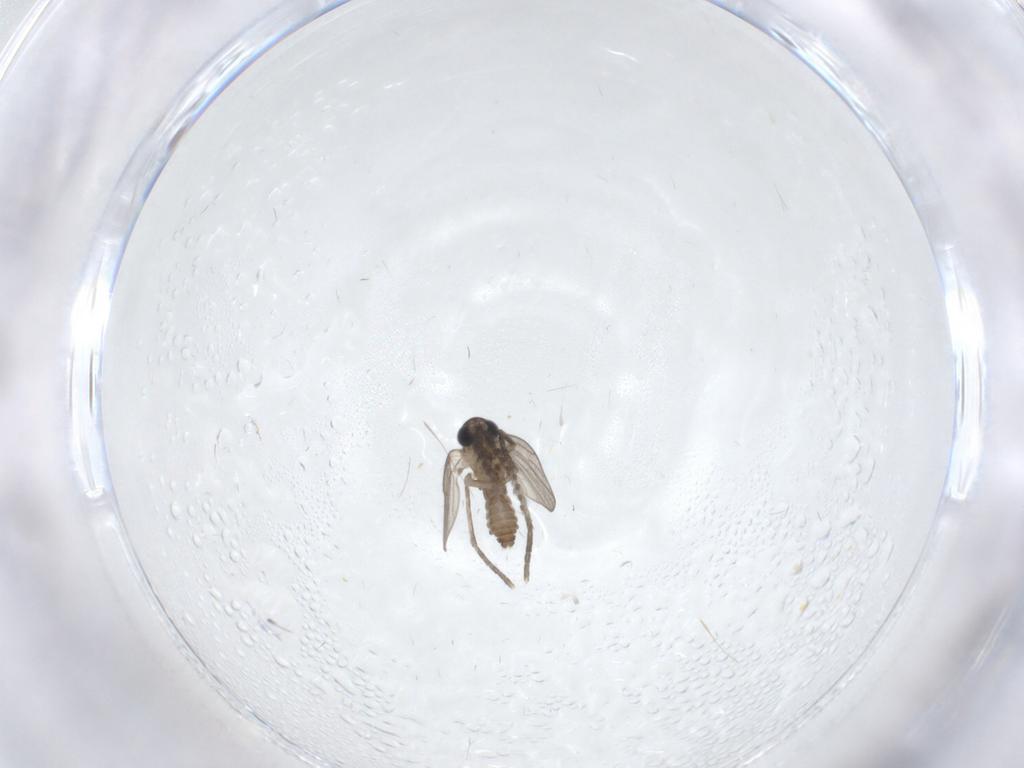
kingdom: Animalia
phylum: Arthropoda
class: Insecta
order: Diptera
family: Psychodidae
